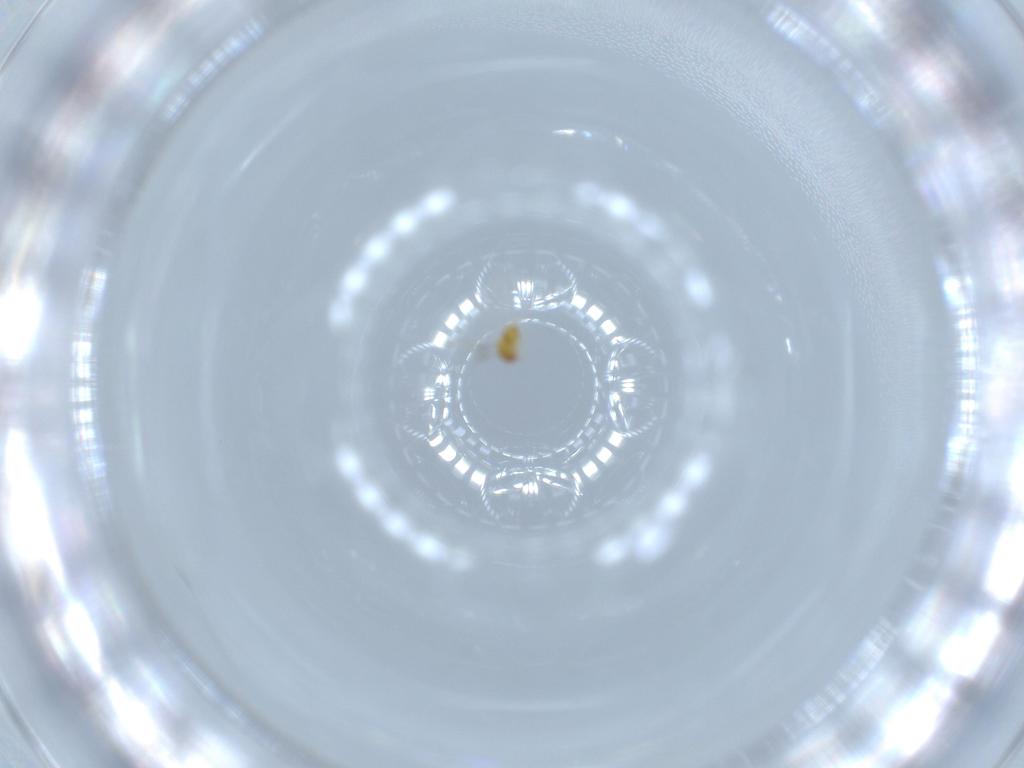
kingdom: Animalia
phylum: Arthropoda
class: Insecta
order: Hymenoptera
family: Trichogrammatidae
